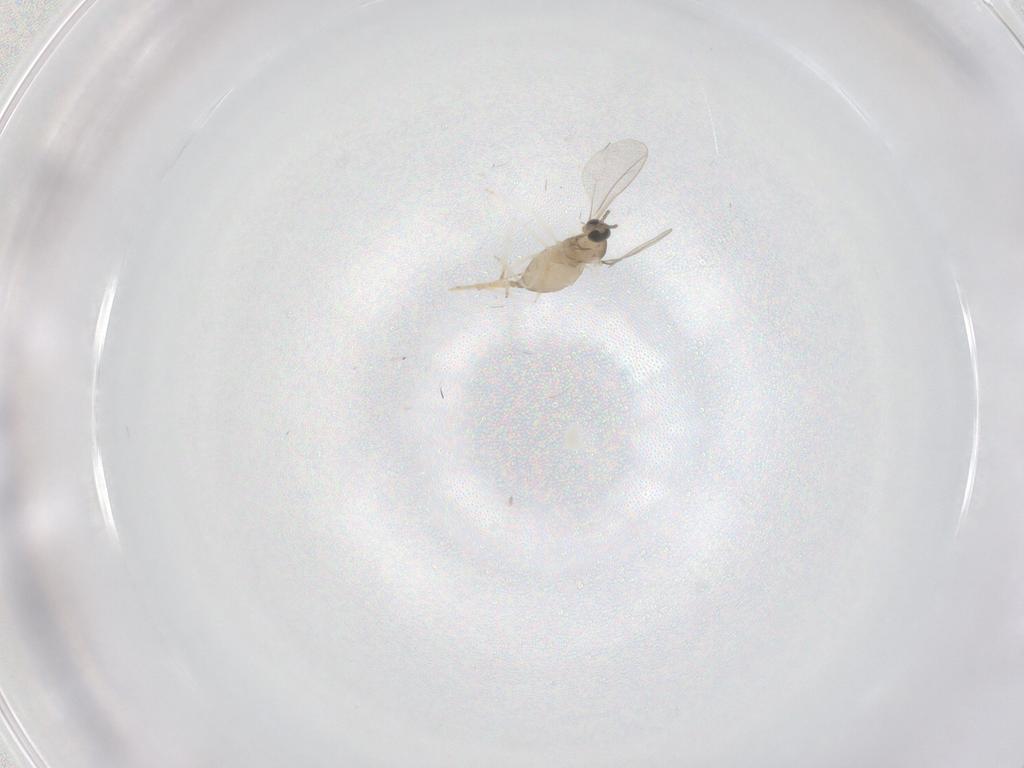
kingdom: Animalia
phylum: Arthropoda
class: Insecta
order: Diptera
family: Cecidomyiidae
